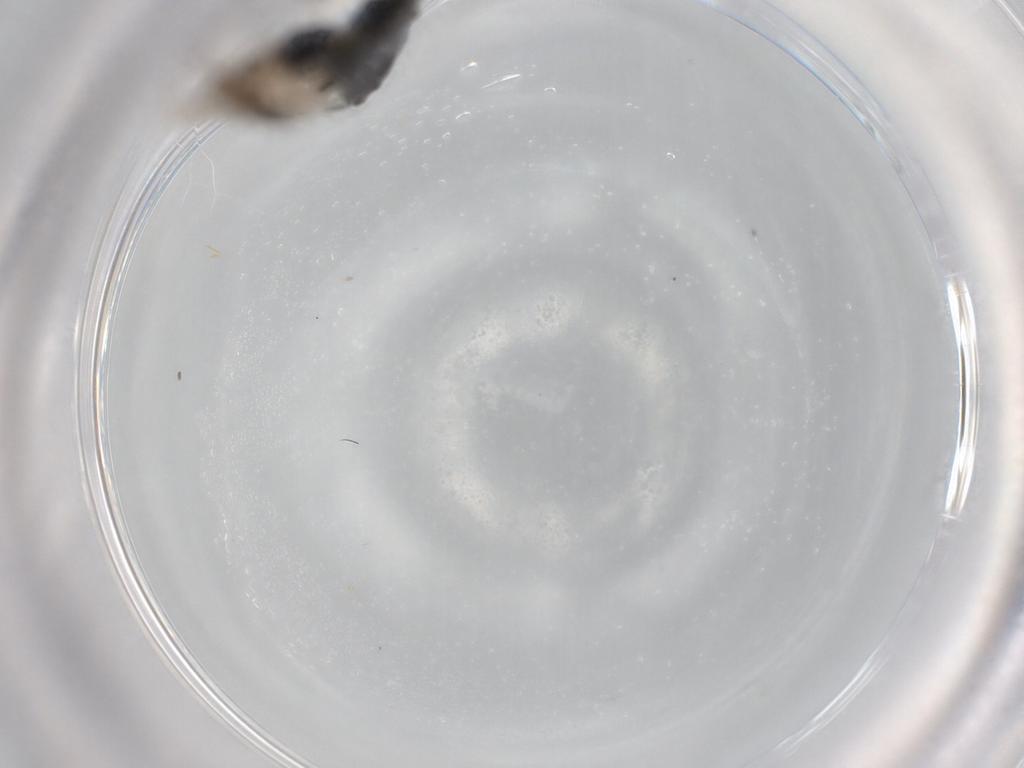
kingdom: Animalia
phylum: Arthropoda
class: Insecta
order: Hymenoptera
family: Braconidae
